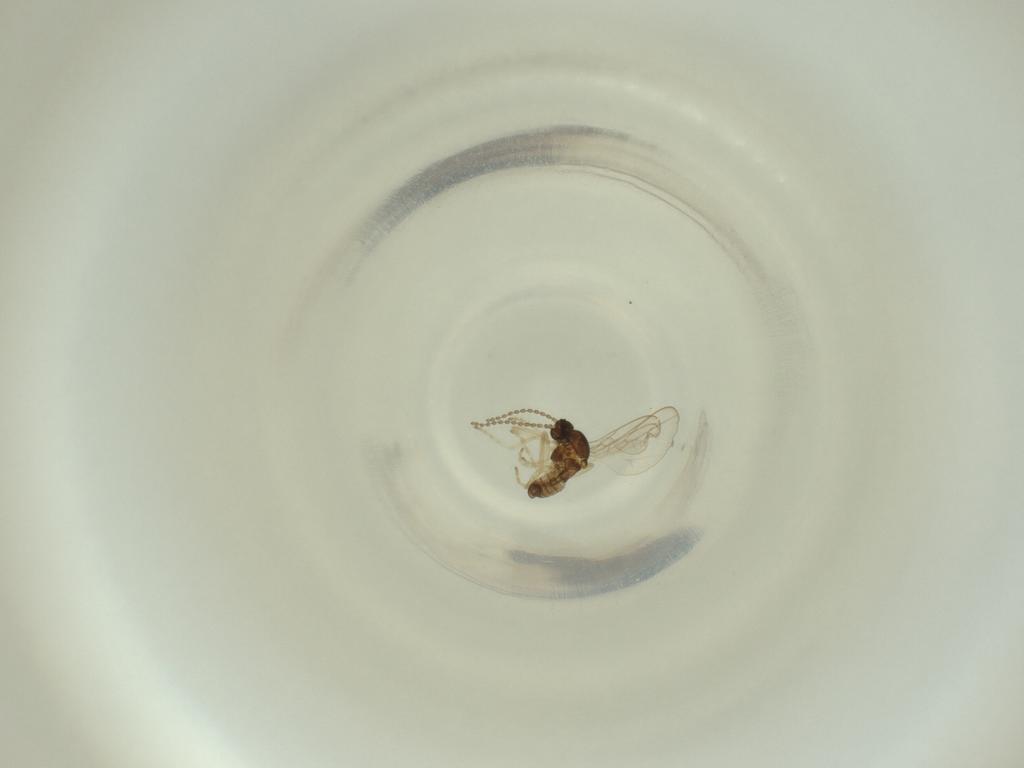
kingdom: Animalia
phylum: Arthropoda
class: Insecta
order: Diptera
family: Cecidomyiidae
